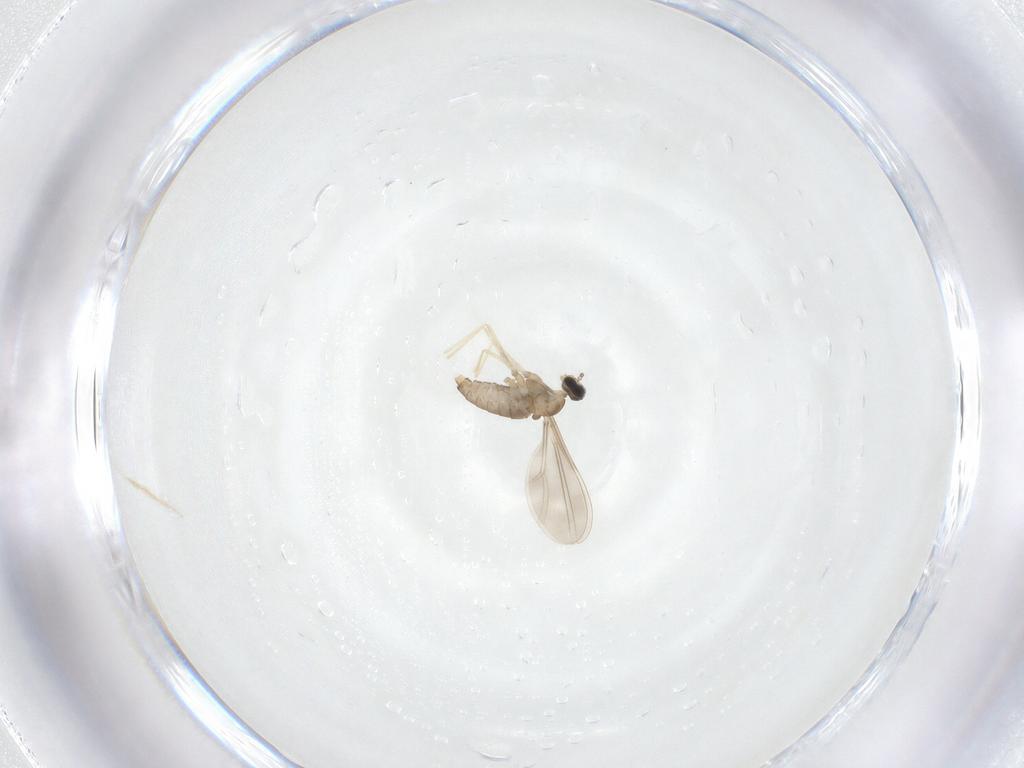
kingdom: Animalia
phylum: Arthropoda
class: Insecta
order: Diptera
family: Cecidomyiidae
